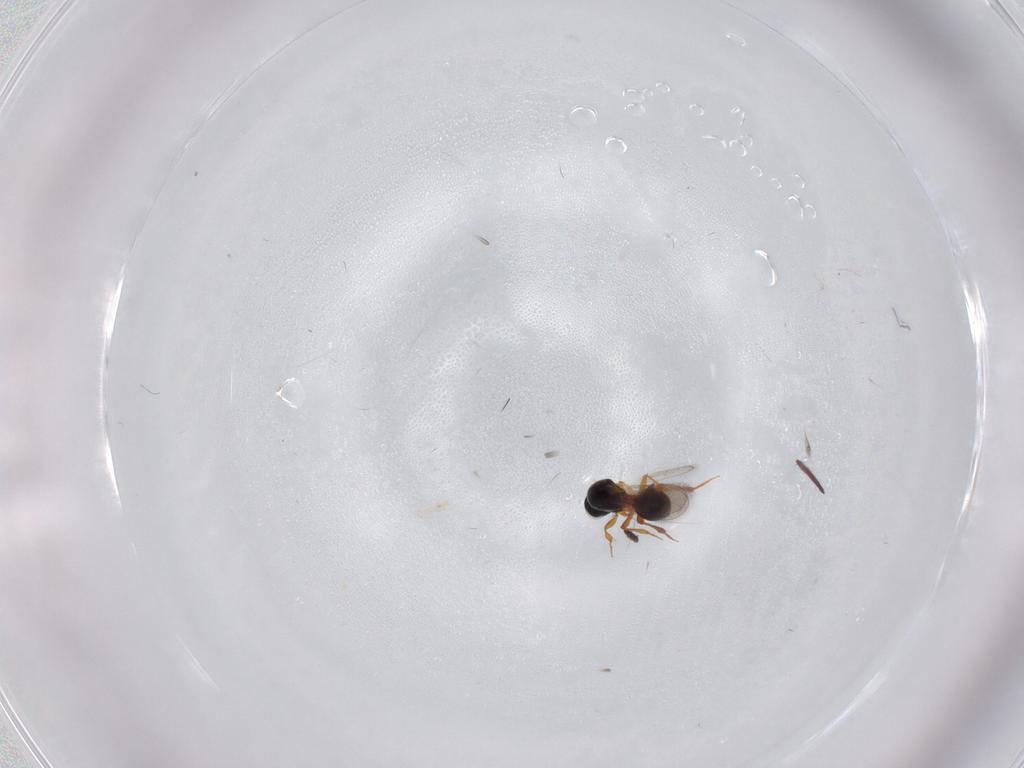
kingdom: Animalia
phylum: Arthropoda
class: Insecta
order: Hymenoptera
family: Platygastridae
